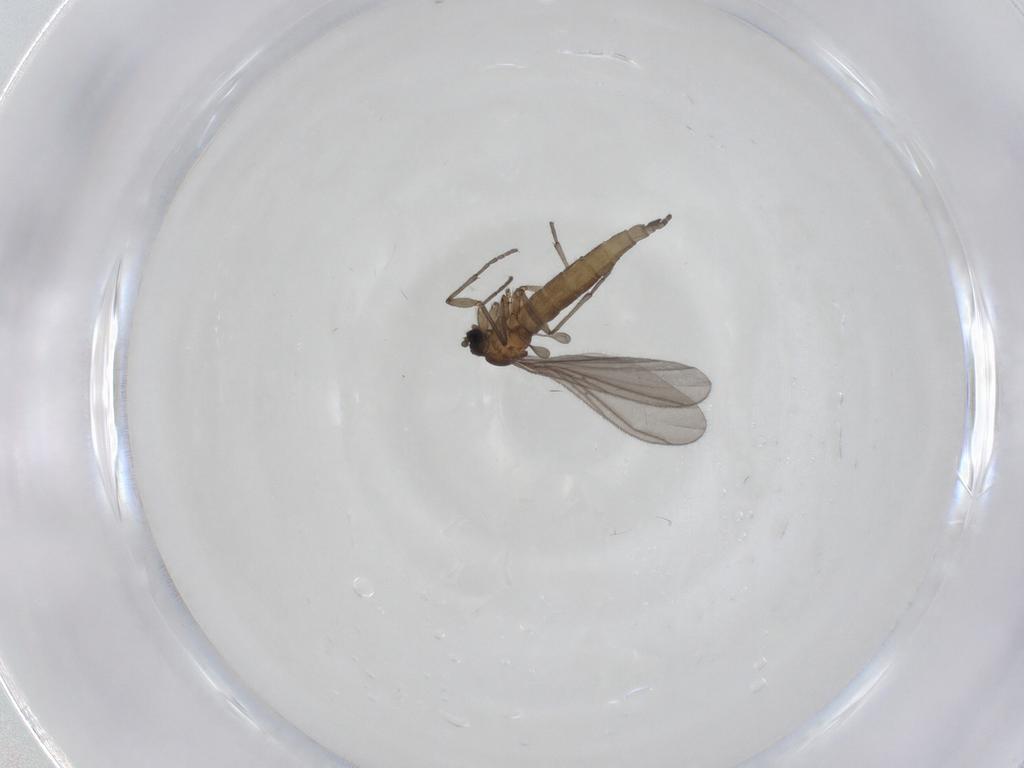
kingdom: Animalia
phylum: Arthropoda
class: Insecta
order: Diptera
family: Sciaridae
